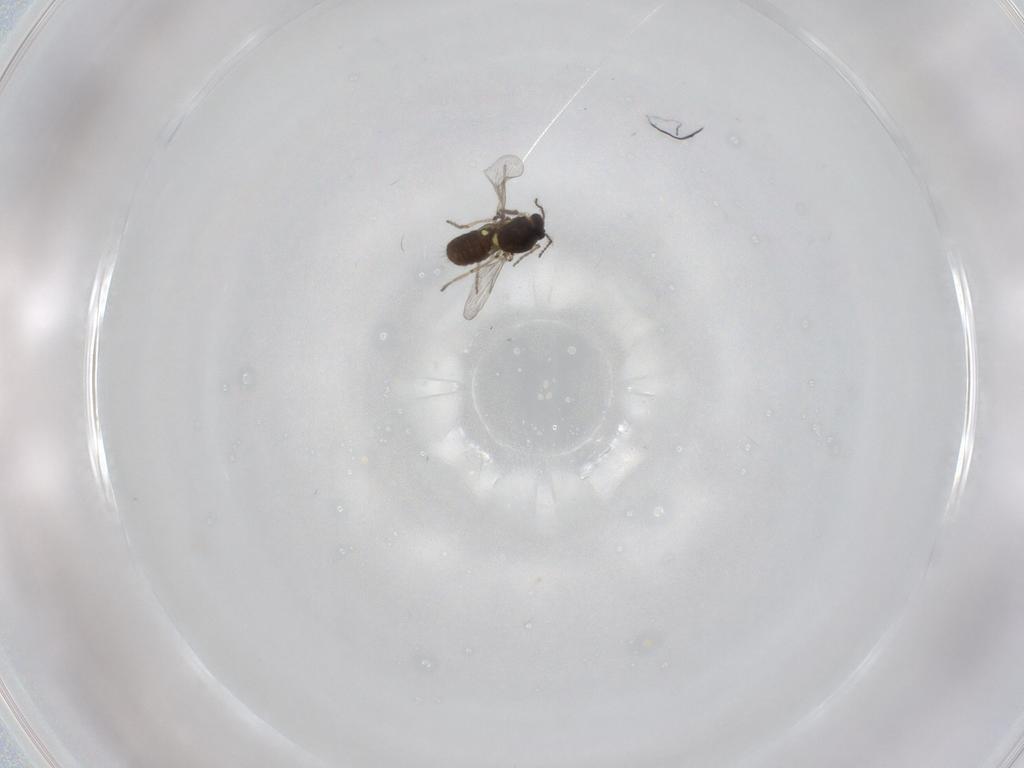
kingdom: Animalia
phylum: Arthropoda
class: Insecta
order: Diptera
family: Ceratopogonidae
